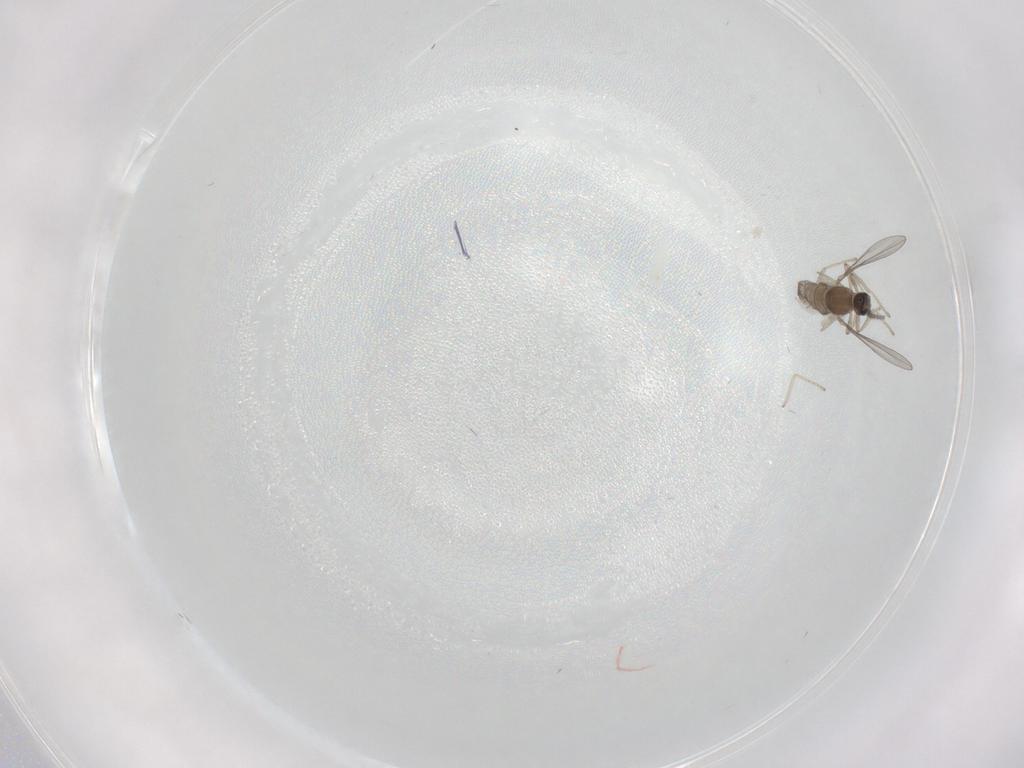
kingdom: Animalia
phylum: Arthropoda
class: Insecta
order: Diptera
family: Cecidomyiidae
